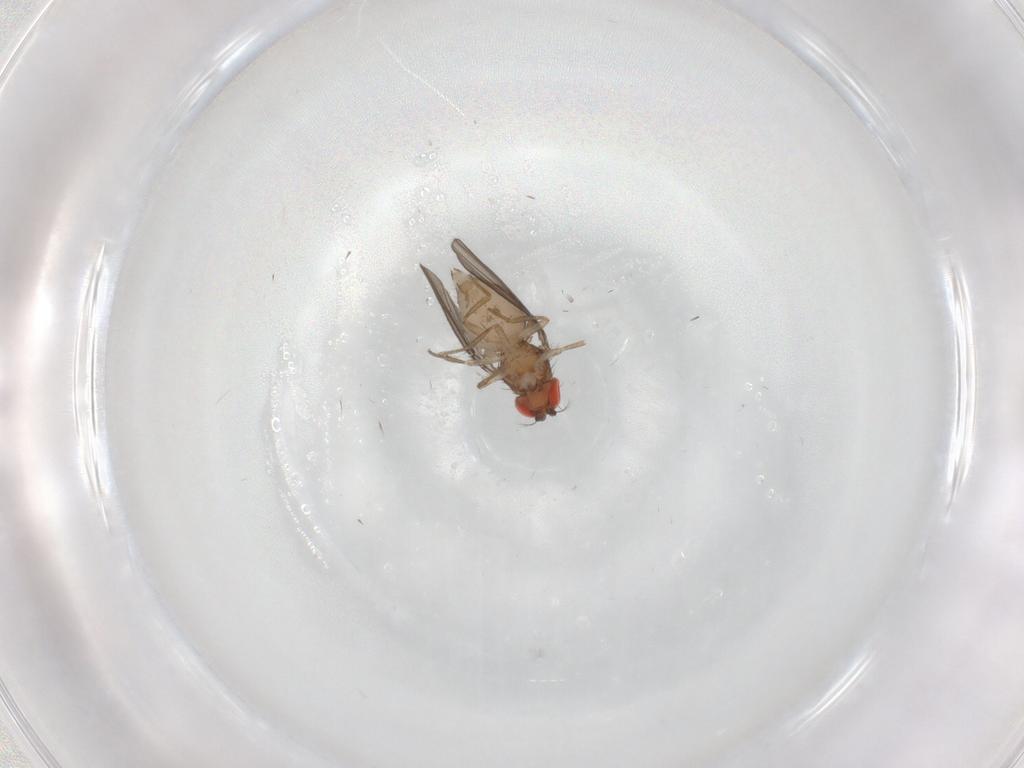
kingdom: Animalia
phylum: Arthropoda
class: Insecta
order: Diptera
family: Ceratopogonidae
